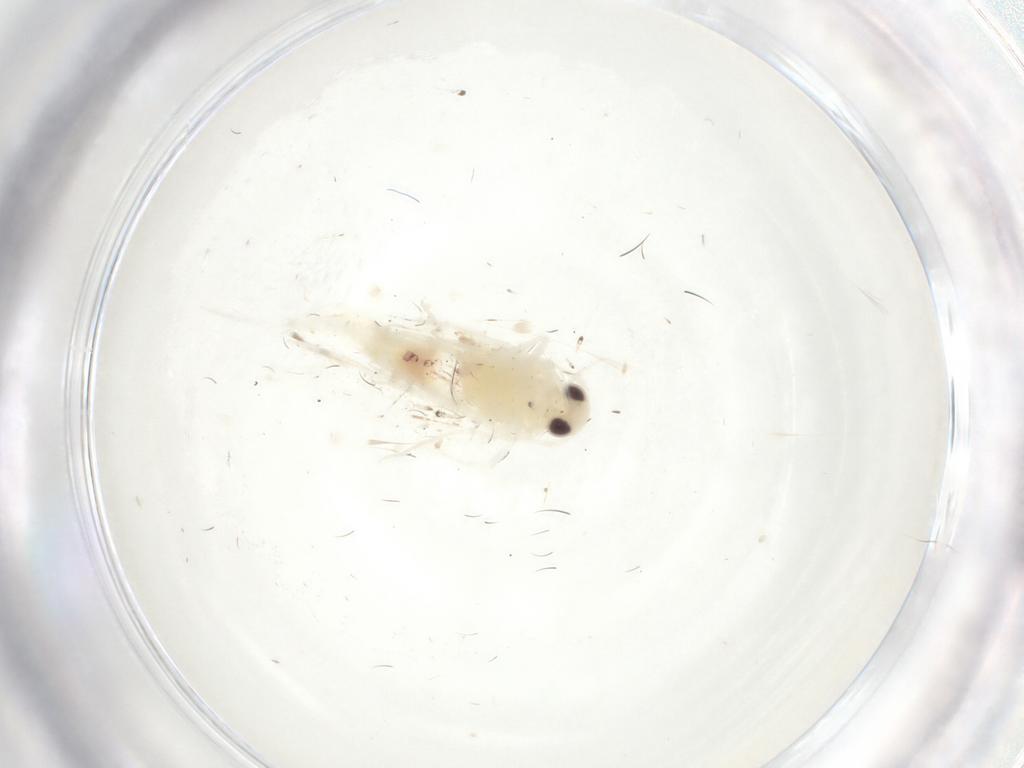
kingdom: Animalia
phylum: Arthropoda
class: Insecta
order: Lepidoptera
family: Gelechiidae
